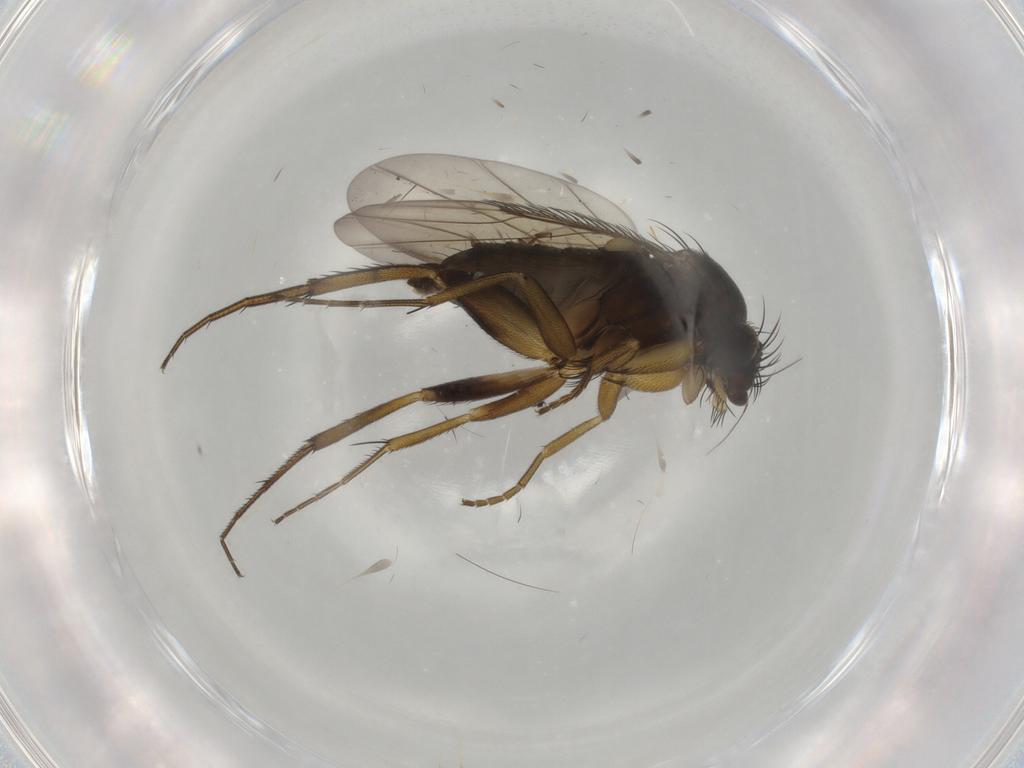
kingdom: Animalia
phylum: Arthropoda
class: Insecta
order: Diptera
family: Phoridae
